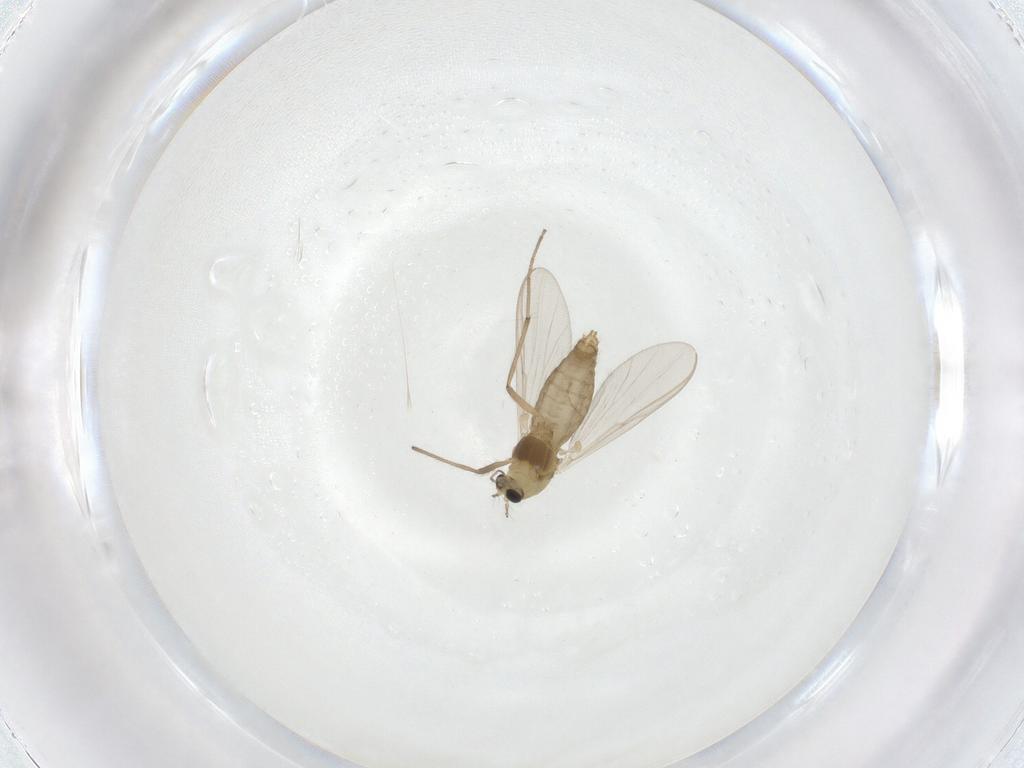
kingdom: Animalia
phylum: Arthropoda
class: Insecta
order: Diptera
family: Chironomidae
